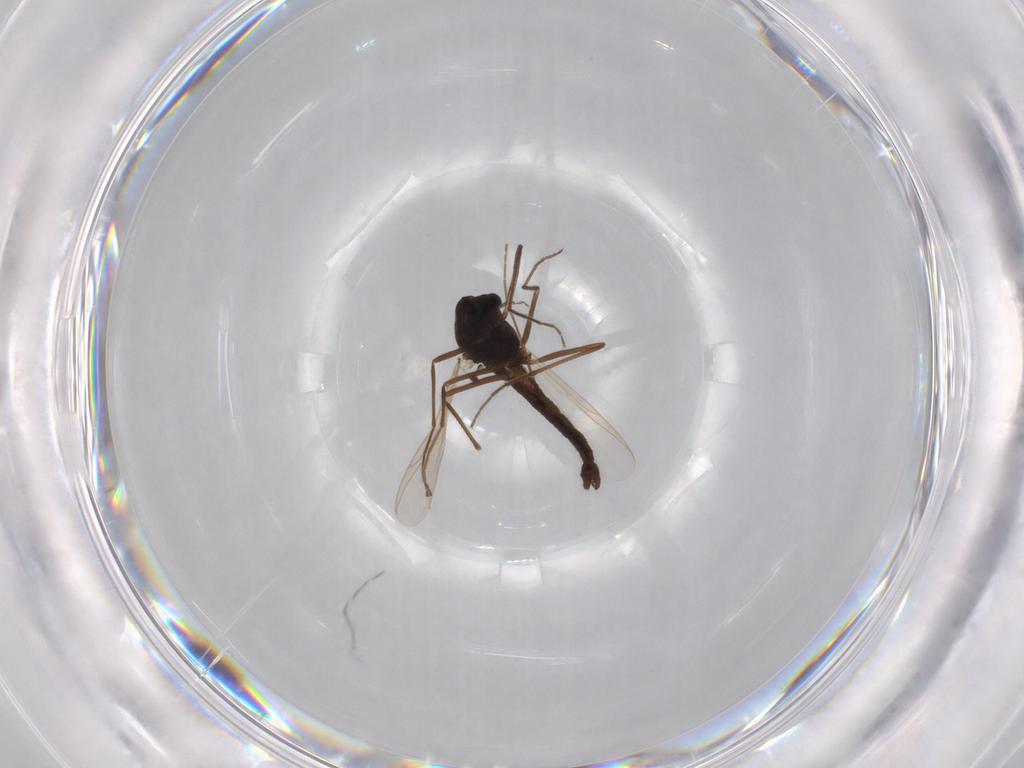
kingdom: Animalia
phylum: Arthropoda
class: Insecta
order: Diptera
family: Chironomidae
